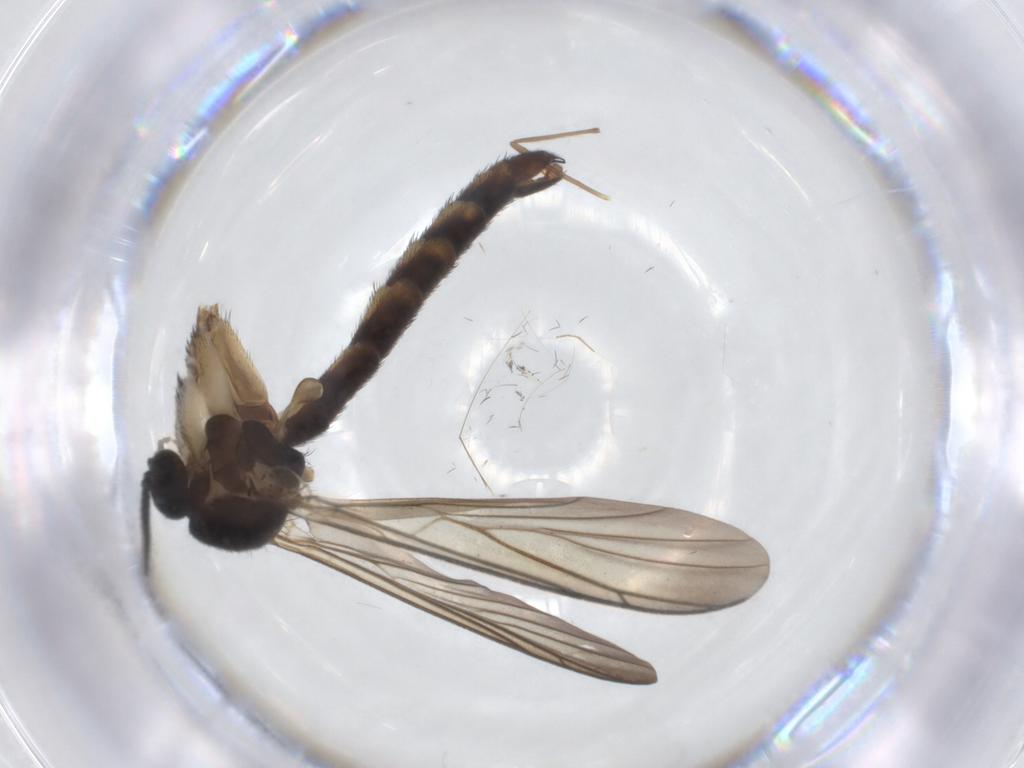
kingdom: Animalia
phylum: Arthropoda
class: Insecta
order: Diptera
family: Keroplatidae
